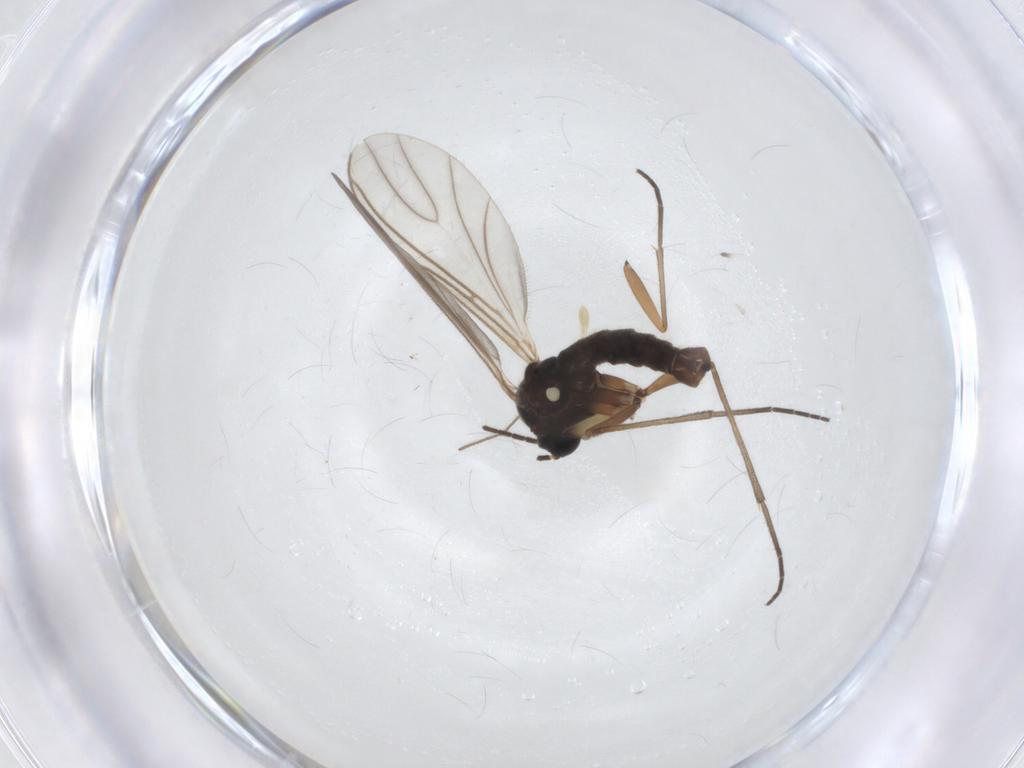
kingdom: Animalia
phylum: Arthropoda
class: Insecta
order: Diptera
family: Sciaridae
